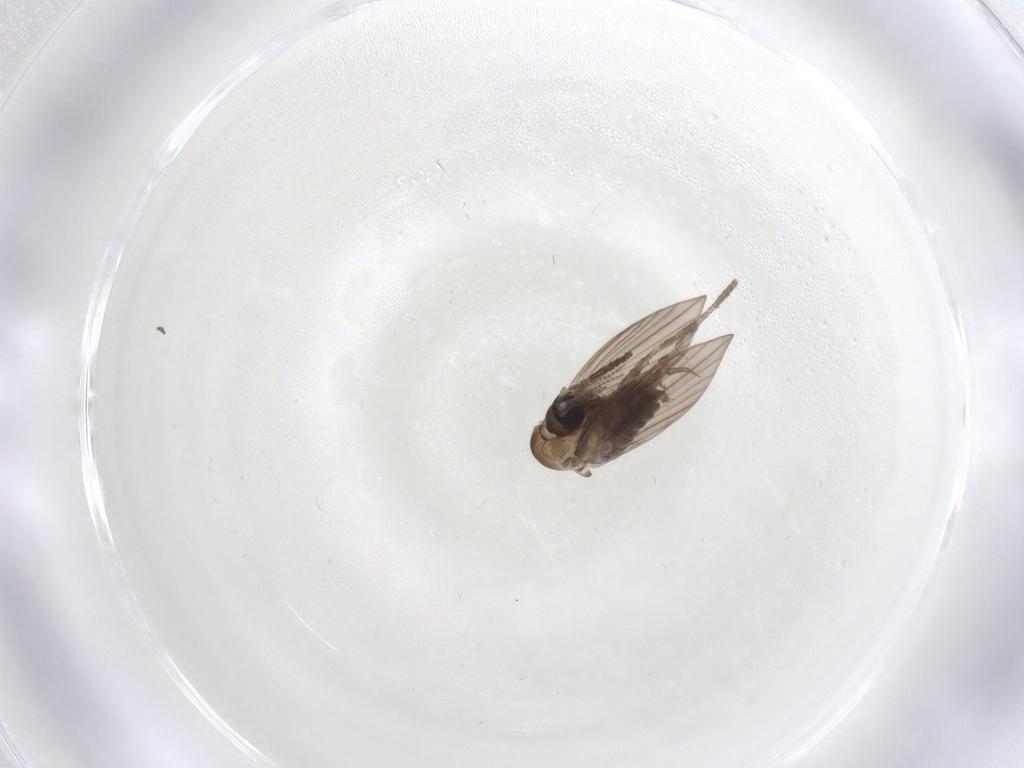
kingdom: Animalia
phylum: Arthropoda
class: Insecta
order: Diptera
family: Psychodidae
